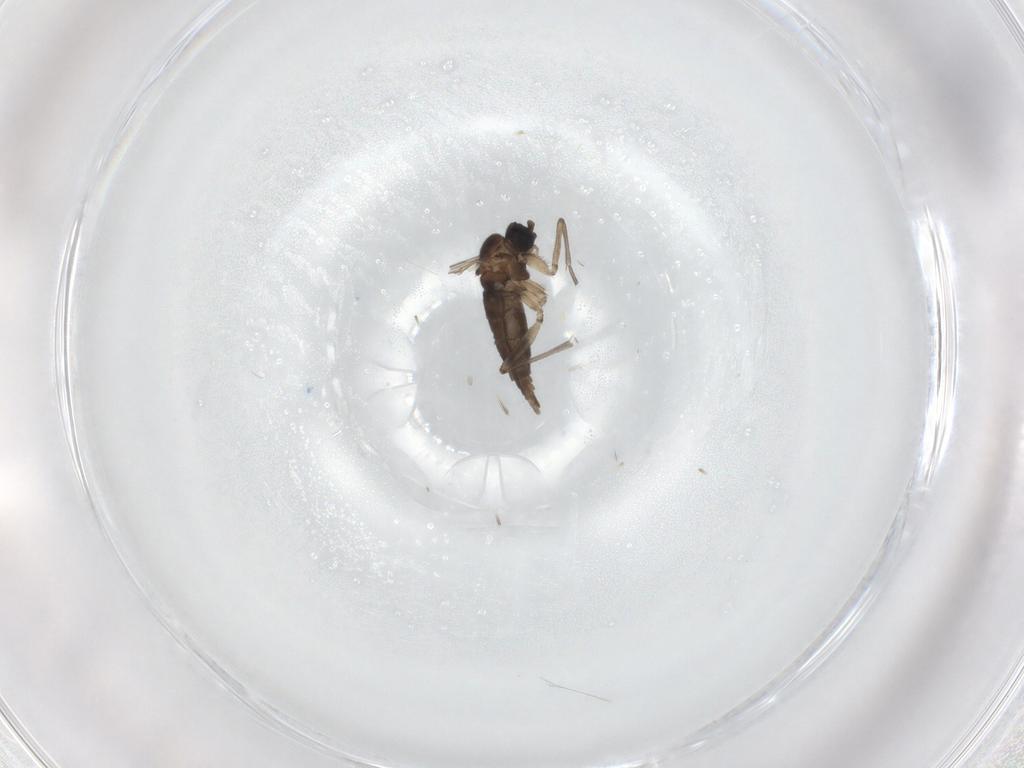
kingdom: Animalia
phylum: Arthropoda
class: Insecta
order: Diptera
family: Sciaridae
